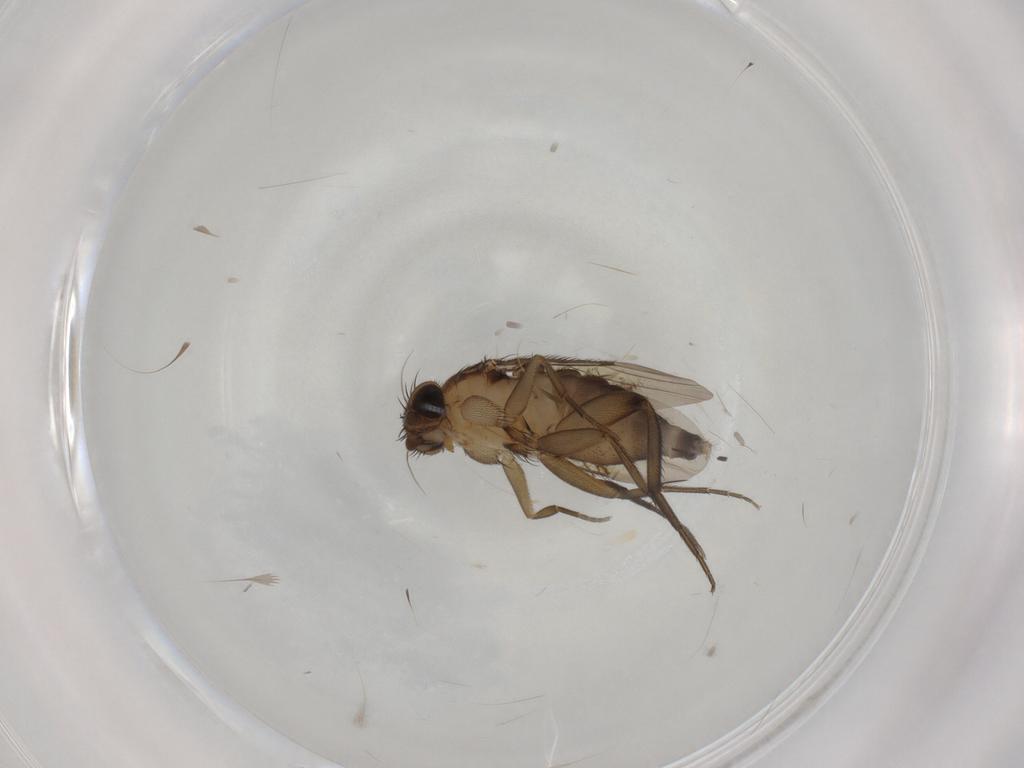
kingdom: Animalia
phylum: Arthropoda
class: Insecta
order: Diptera
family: Phoridae
